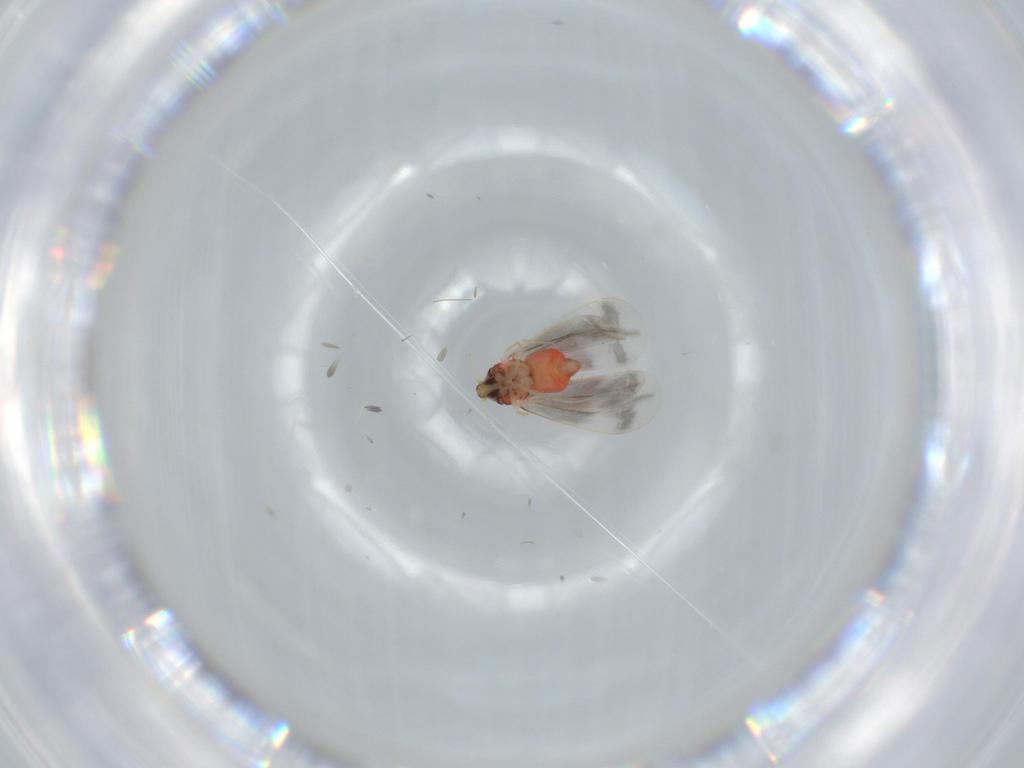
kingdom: Animalia
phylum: Arthropoda
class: Insecta
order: Hemiptera
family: Aleyrodidae
